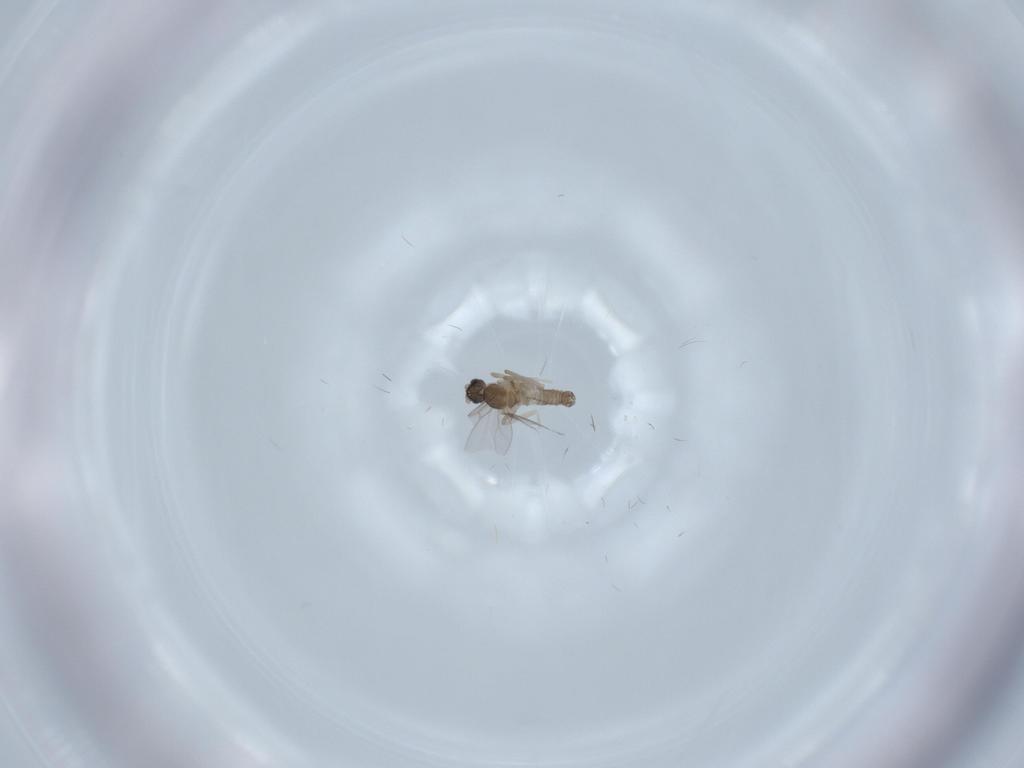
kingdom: Animalia
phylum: Arthropoda
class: Insecta
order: Diptera
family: Cecidomyiidae
